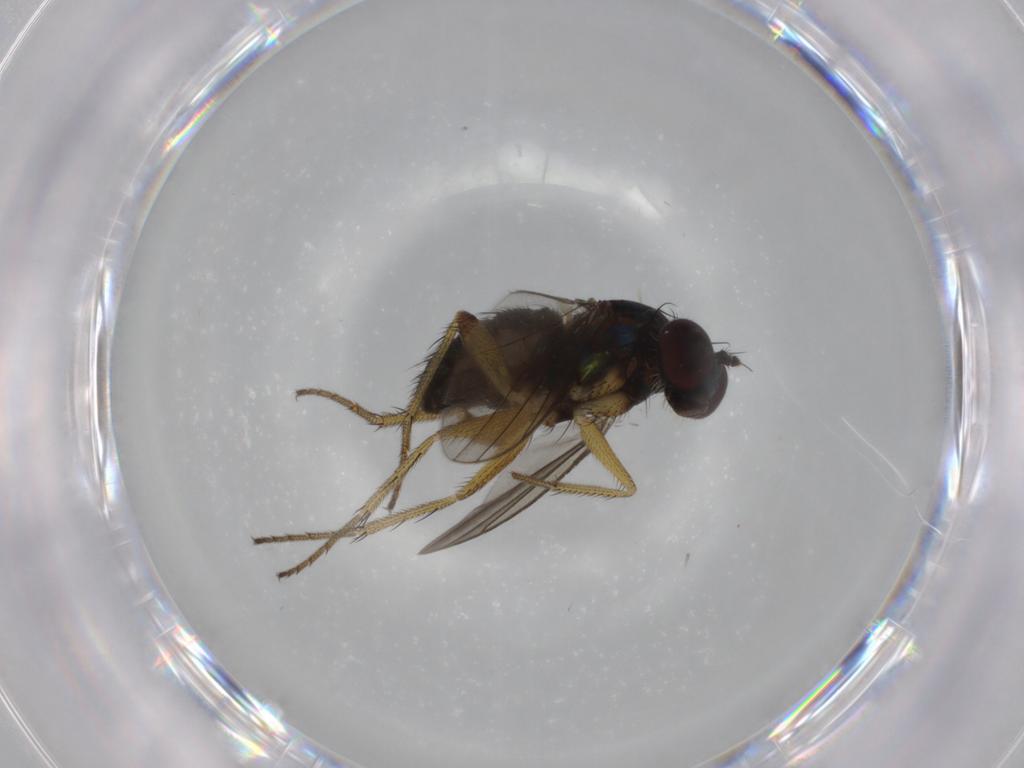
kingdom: Animalia
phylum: Arthropoda
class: Insecta
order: Diptera
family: Dolichopodidae
